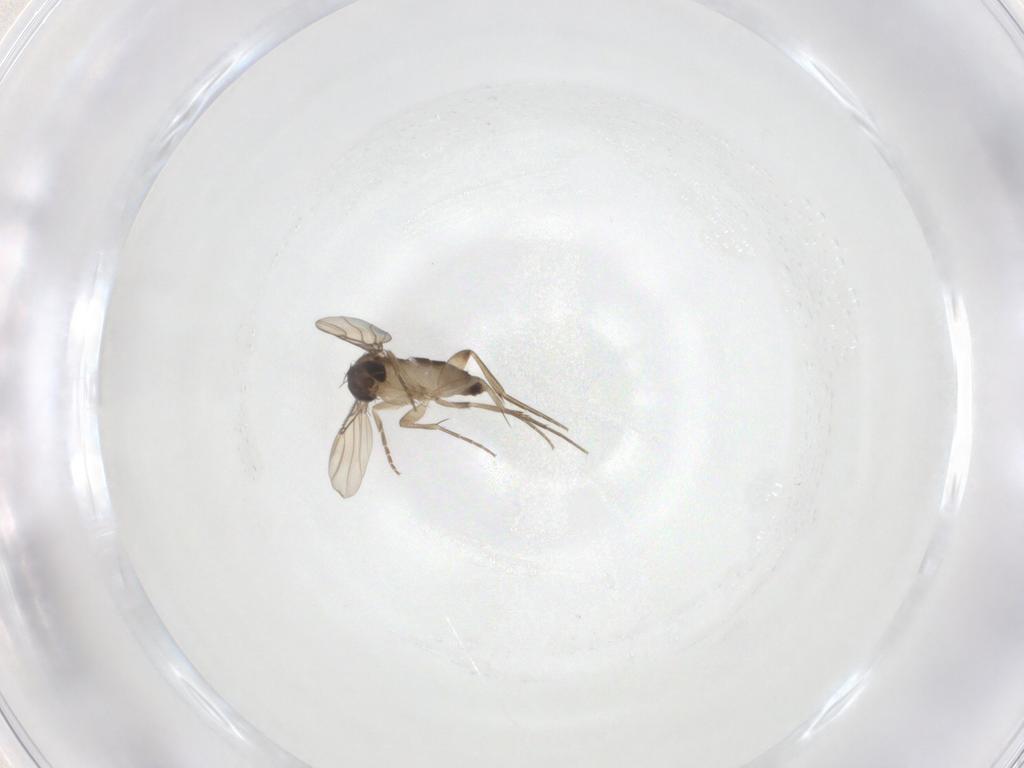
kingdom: Animalia
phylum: Arthropoda
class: Insecta
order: Diptera
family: Phoridae
